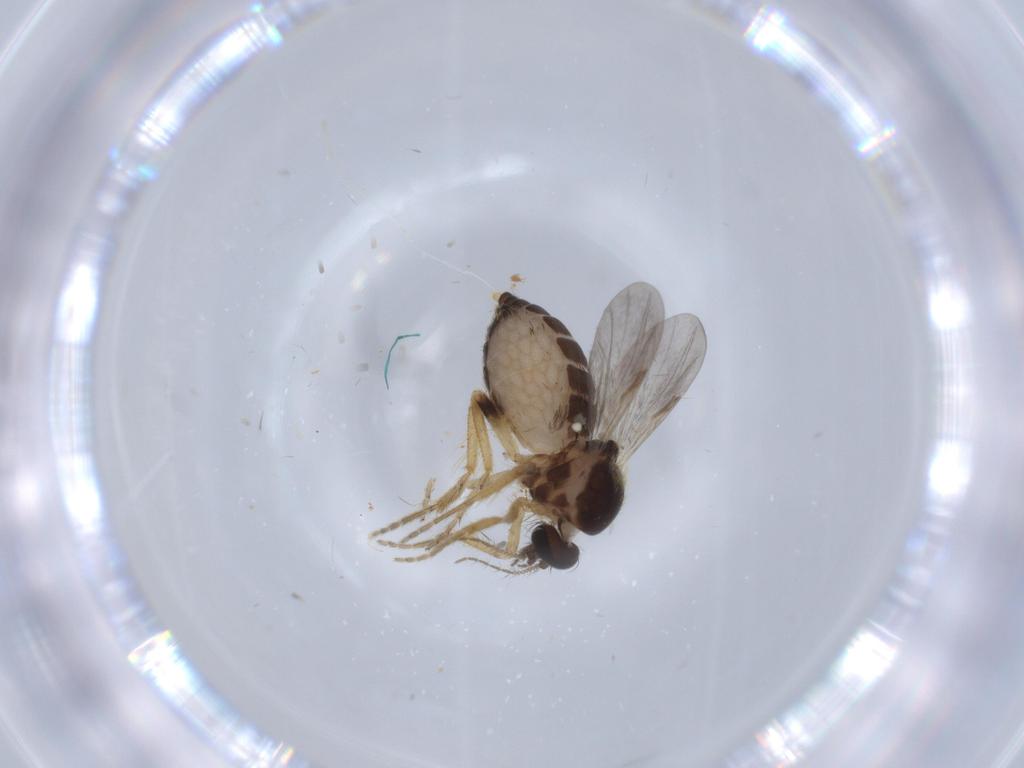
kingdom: Animalia
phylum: Arthropoda
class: Insecta
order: Diptera
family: Ceratopogonidae
